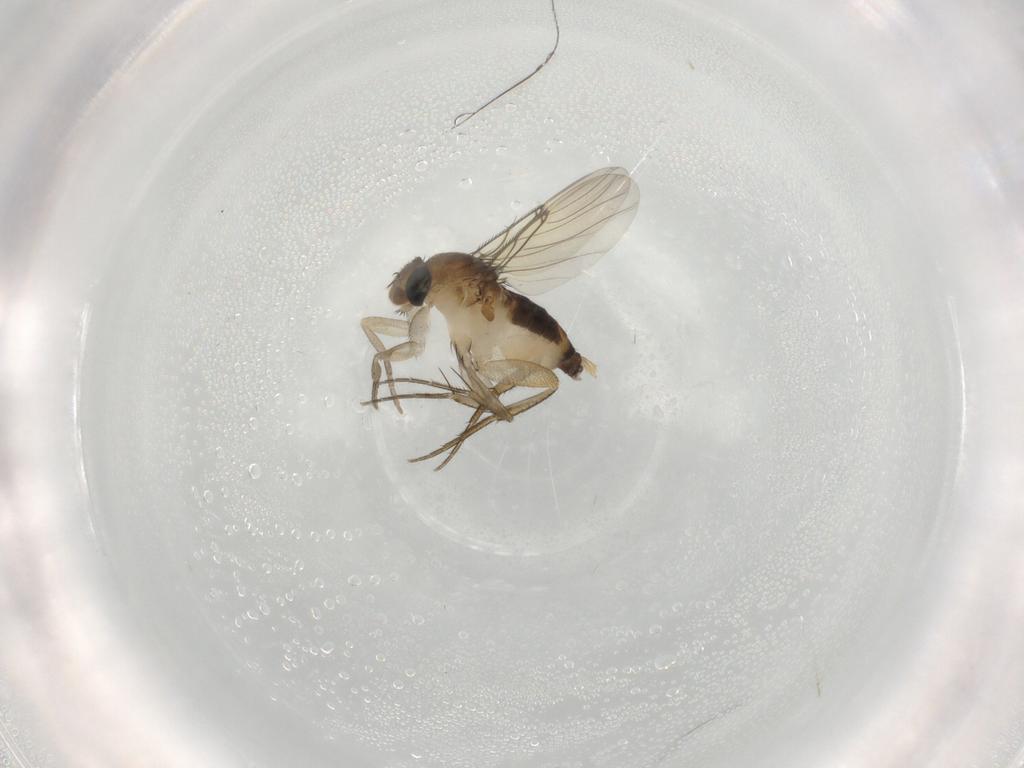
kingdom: Animalia
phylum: Arthropoda
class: Insecta
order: Diptera
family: Phoridae
